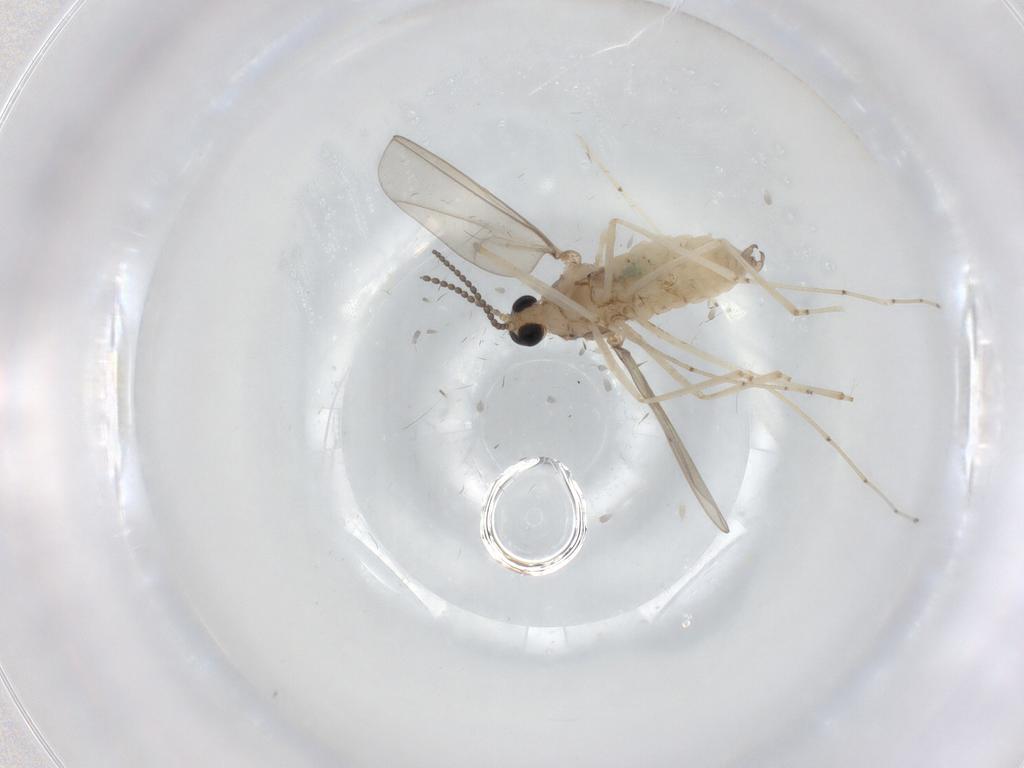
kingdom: Animalia
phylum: Arthropoda
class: Insecta
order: Diptera
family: Cecidomyiidae
